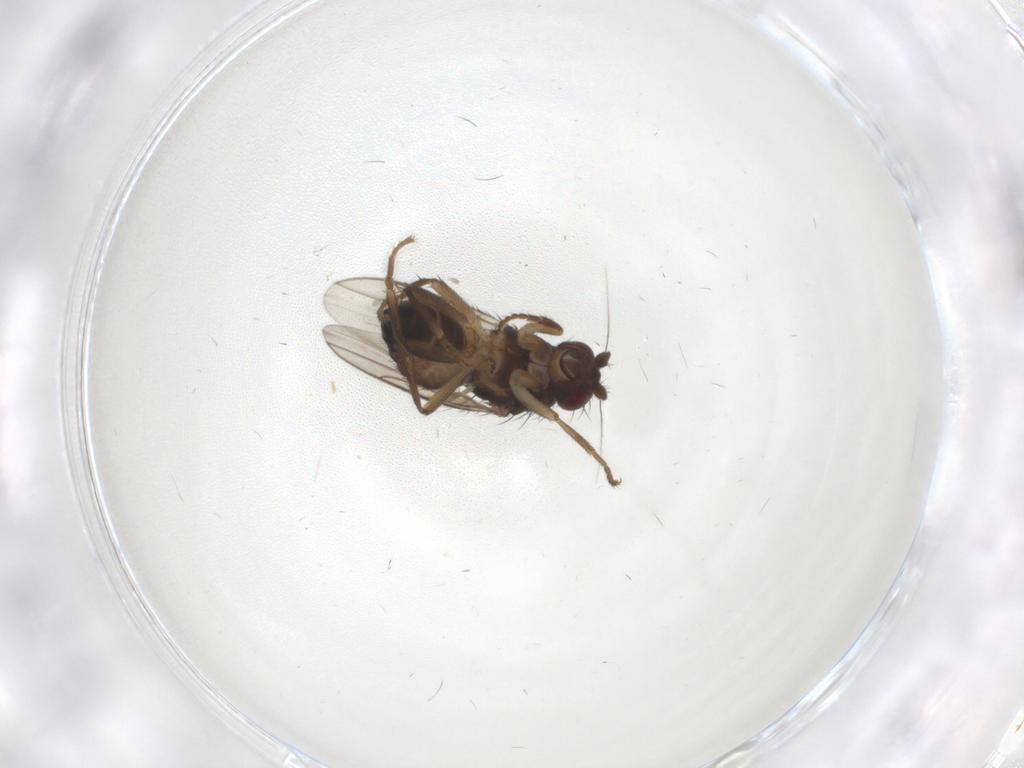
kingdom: Animalia
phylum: Arthropoda
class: Insecta
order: Diptera
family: Sphaeroceridae
